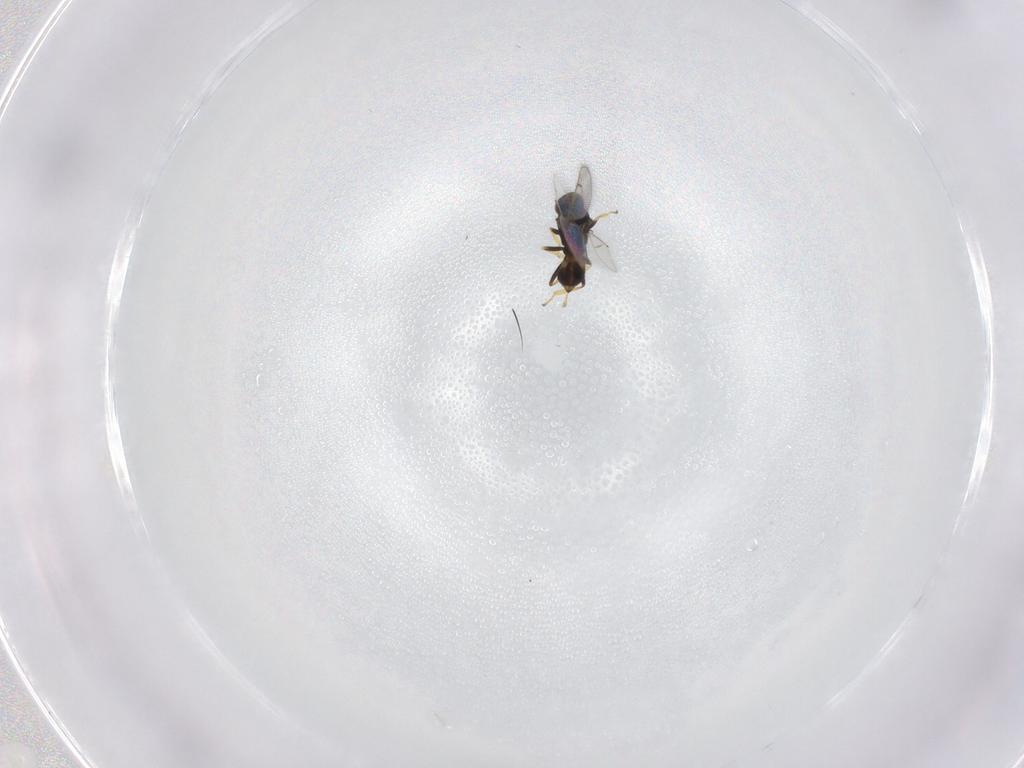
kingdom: Animalia
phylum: Arthropoda
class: Insecta
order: Hymenoptera
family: Eulophidae
